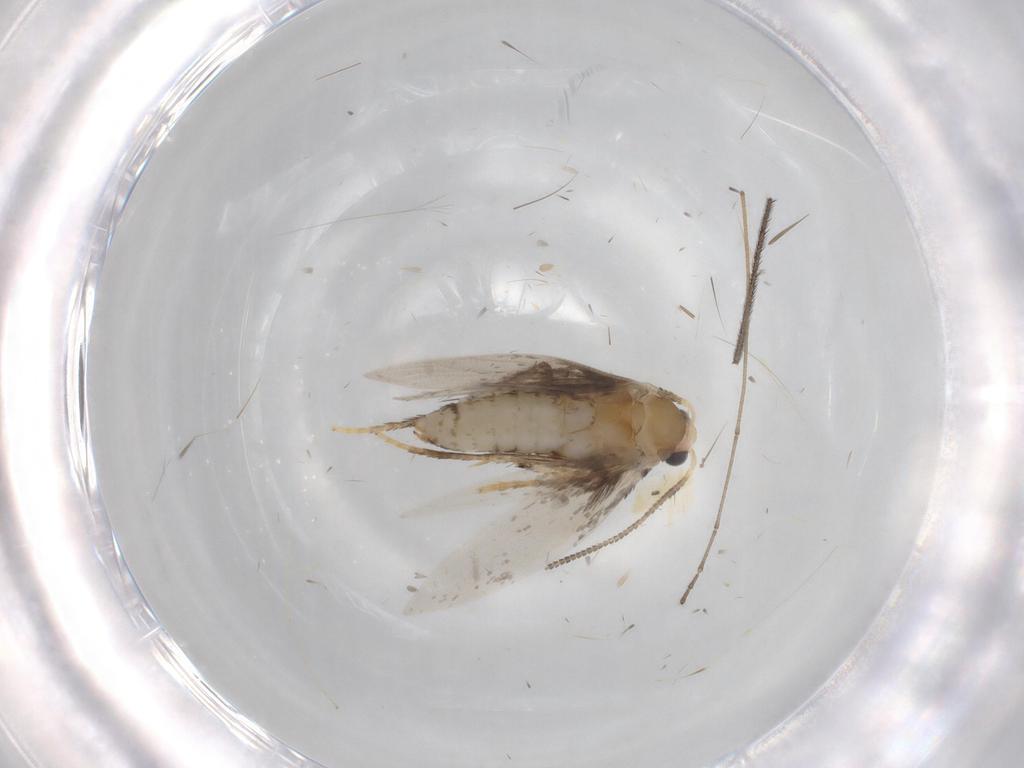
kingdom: Animalia
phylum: Arthropoda
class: Insecta
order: Lepidoptera
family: Nepticulidae
